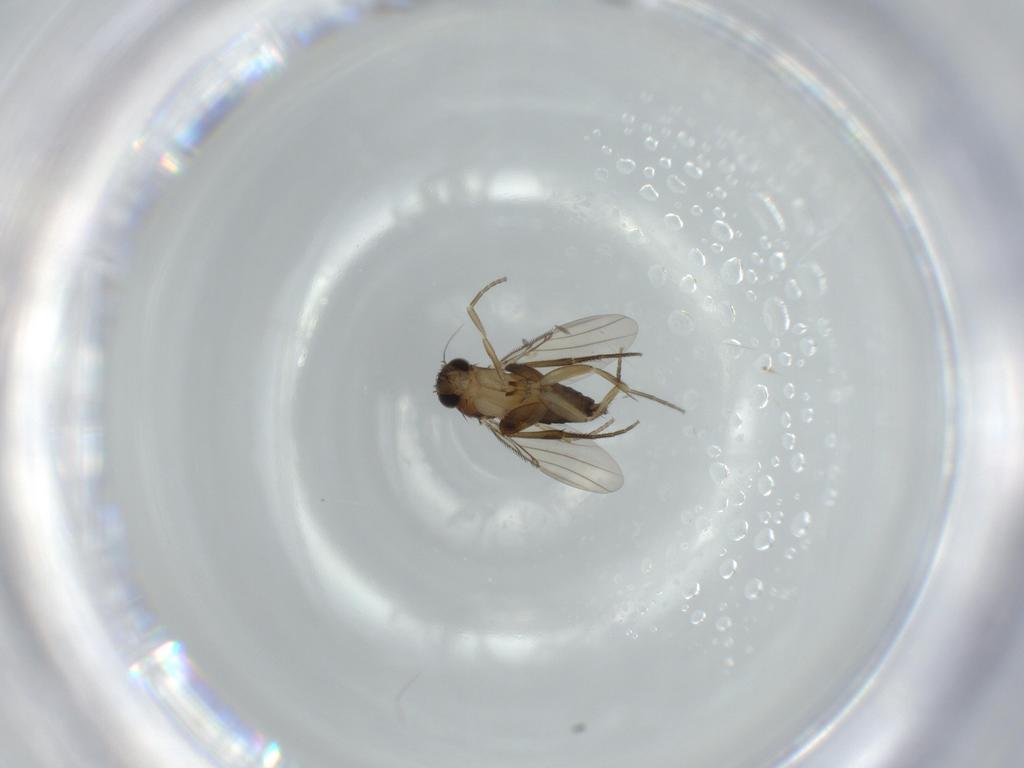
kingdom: Animalia
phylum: Arthropoda
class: Insecta
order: Diptera
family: Phoridae
